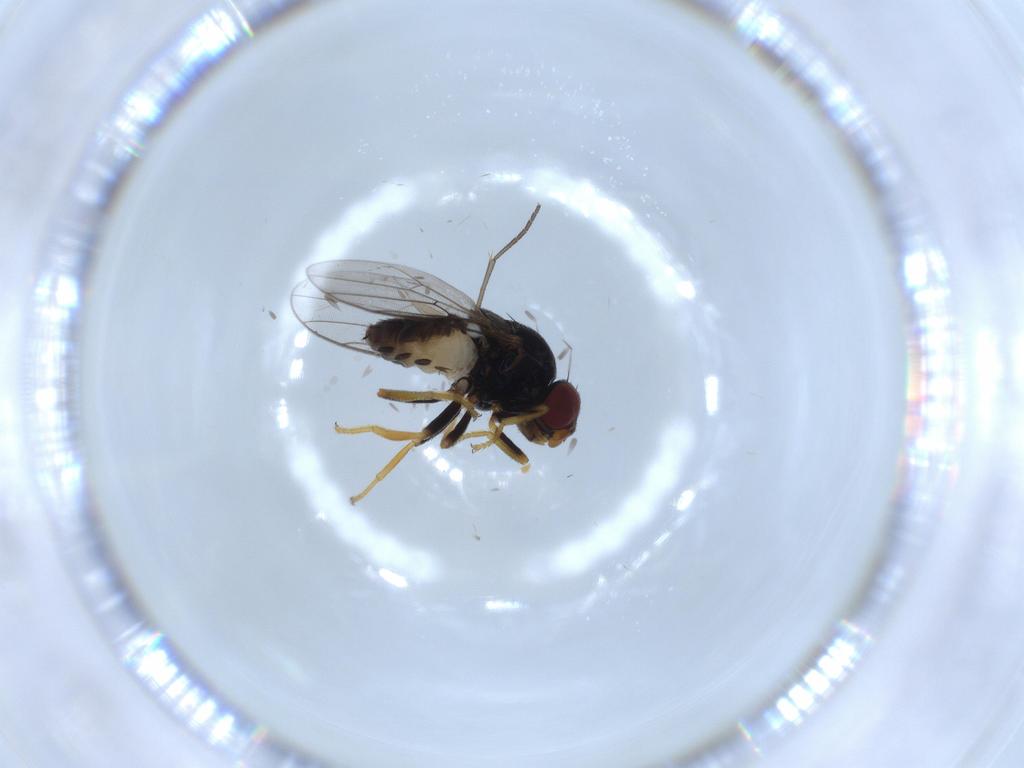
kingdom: Animalia
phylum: Arthropoda
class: Insecta
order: Diptera
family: Sciaridae
